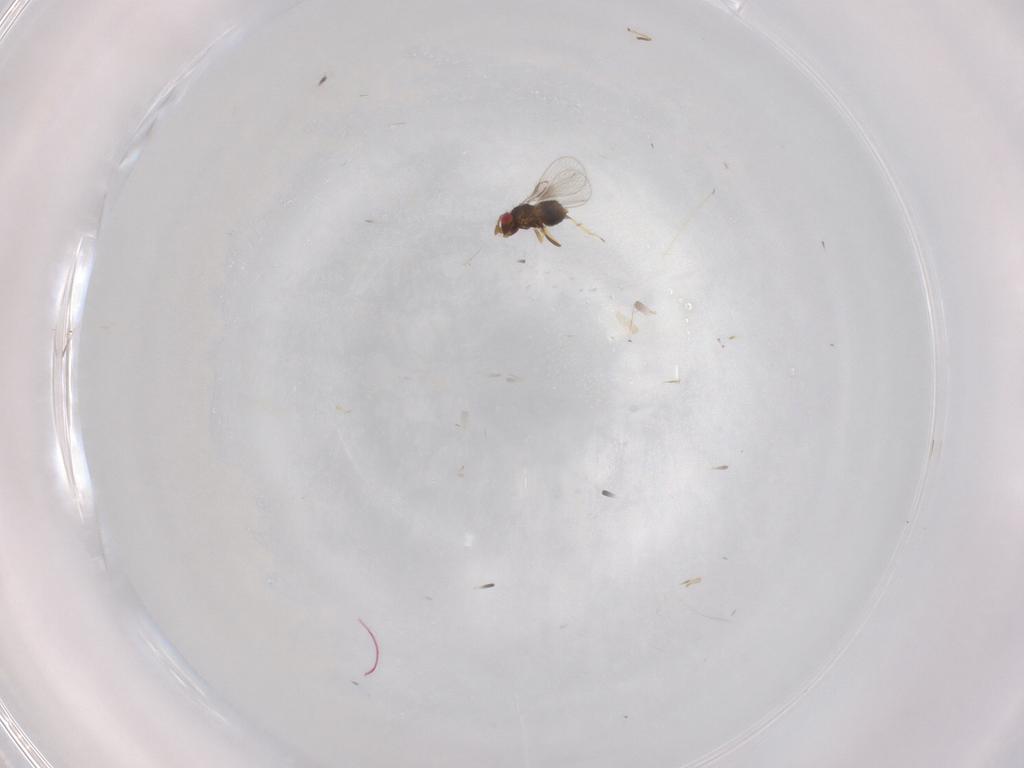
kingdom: Animalia
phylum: Arthropoda
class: Insecta
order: Hymenoptera
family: Trichogrammatidae
